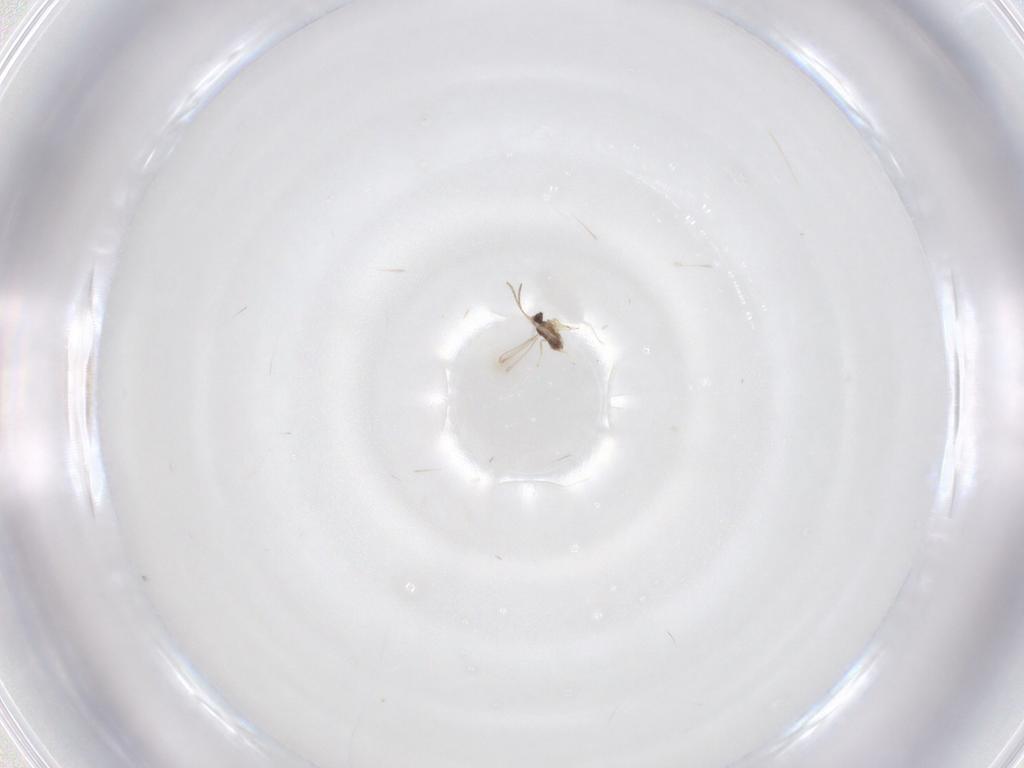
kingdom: Animalia
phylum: Arthropoda
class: Insecta
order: Hymenoptera
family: Mymaridae
